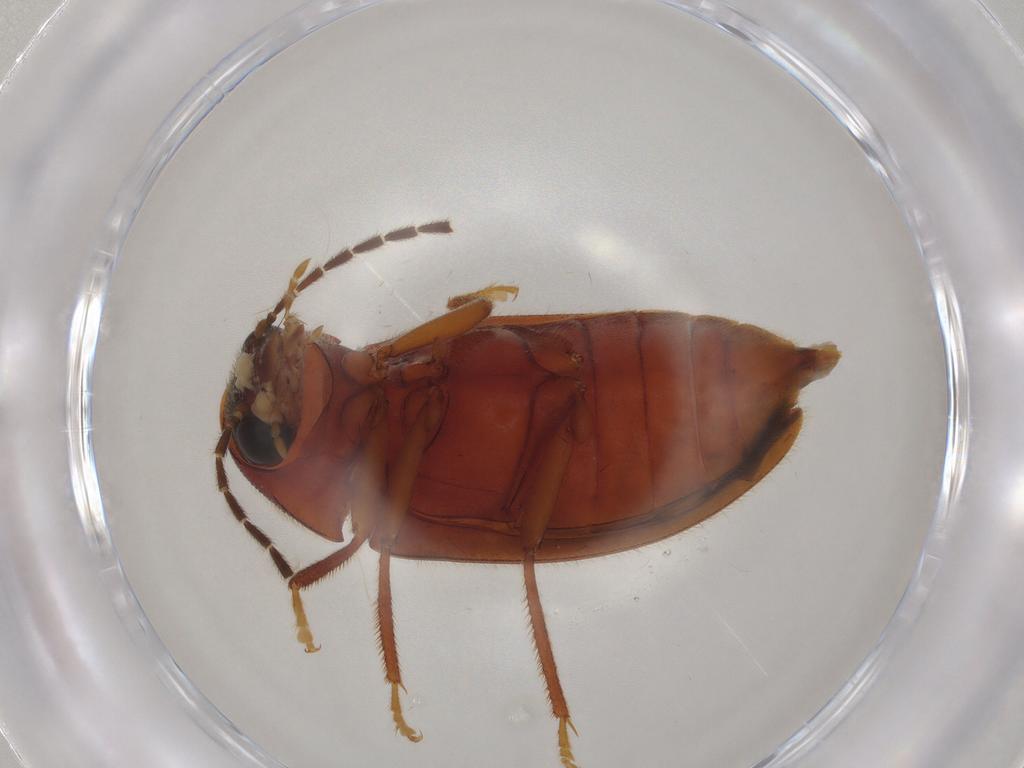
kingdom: Animalia
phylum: Arthropoda
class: Insecta
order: Coleoptera
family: Ptilodactylidae
